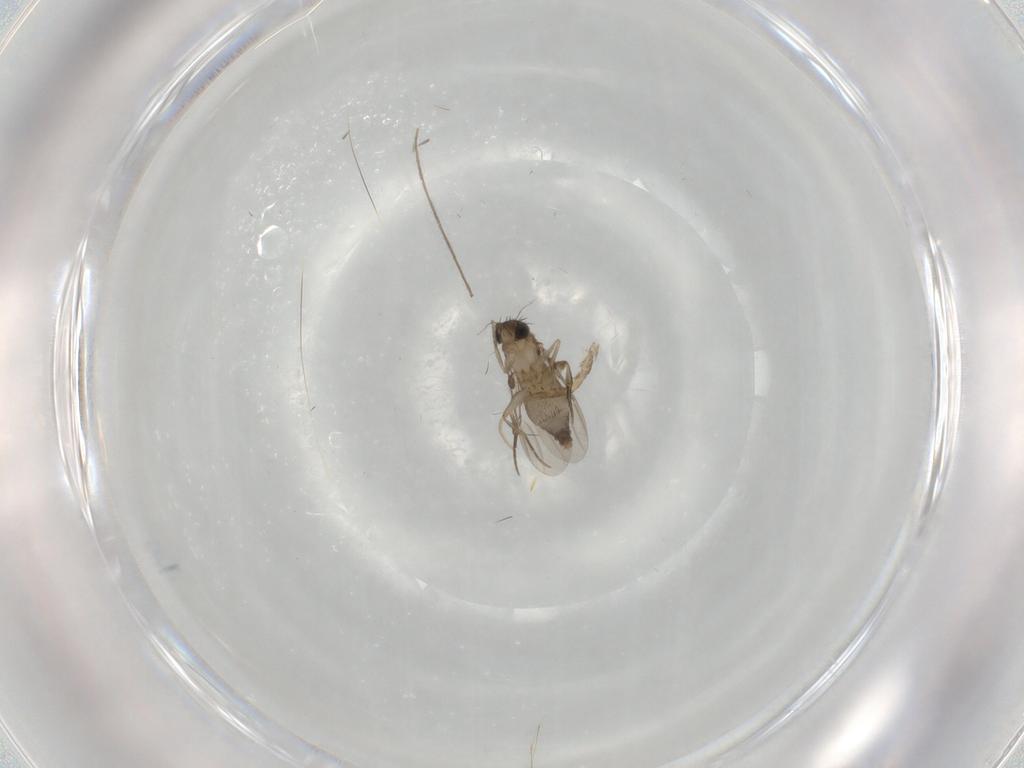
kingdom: Animalia
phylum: Arthropoda
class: Insecta
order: Diptera
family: Phoridae
